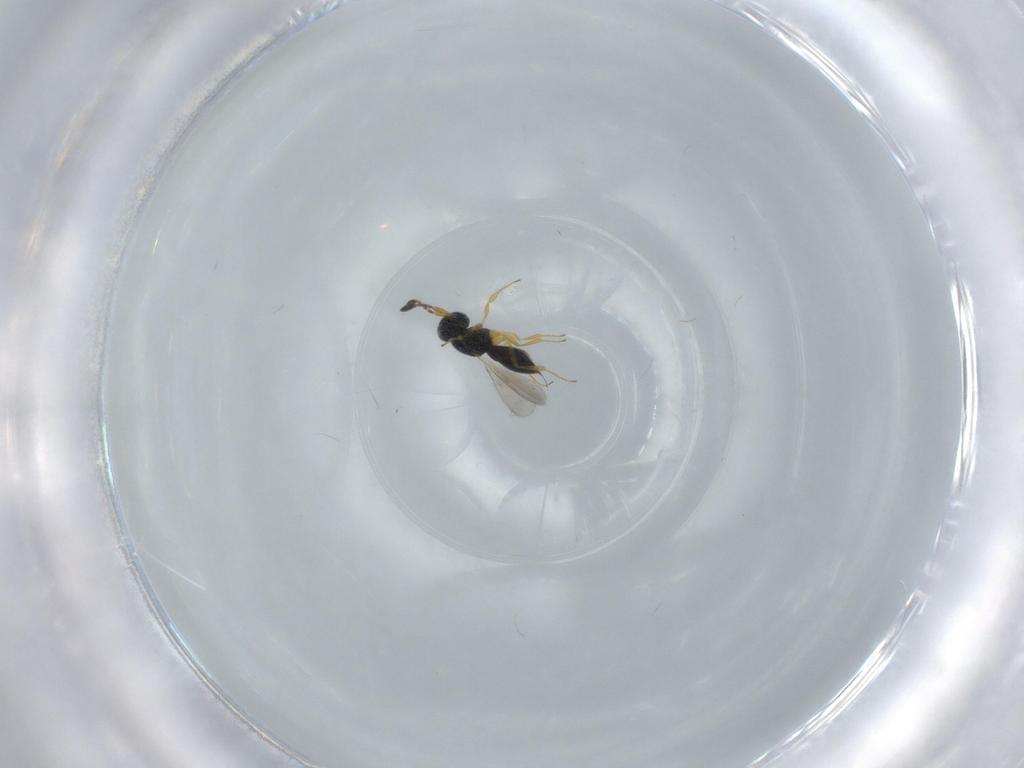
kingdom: Animalia
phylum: Arthropoda
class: Insecta
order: Hymenoptera
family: Scelionidae
